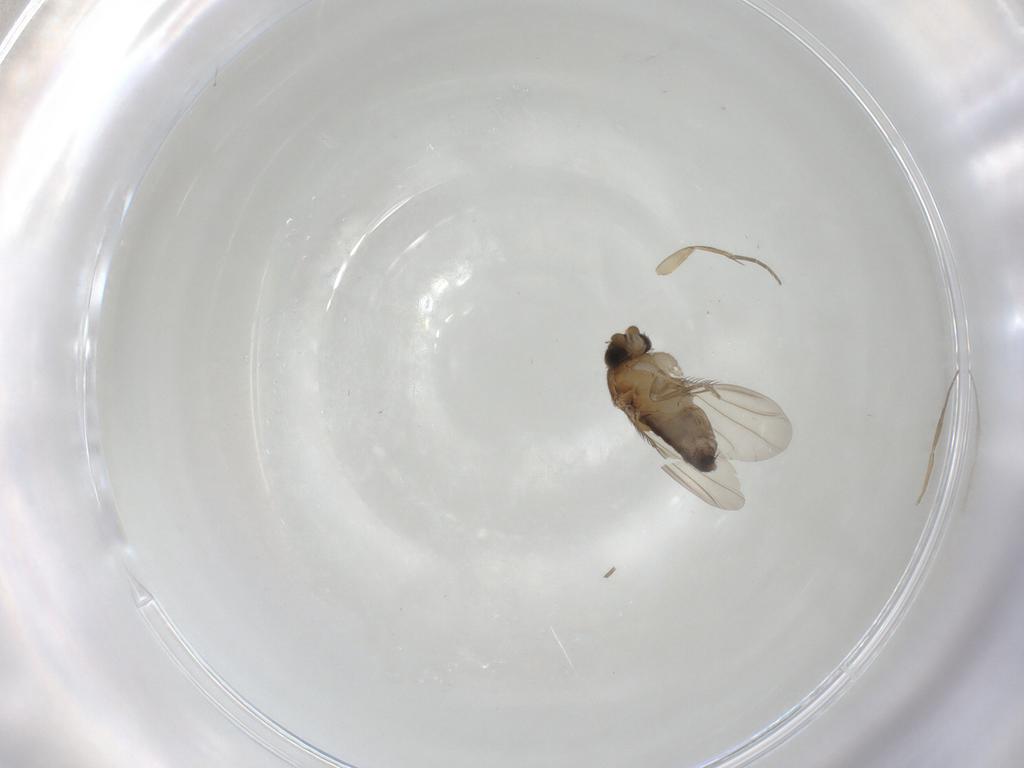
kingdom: Animalia
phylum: Arthropoda
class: Insecta
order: Diptera
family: Phoridae
